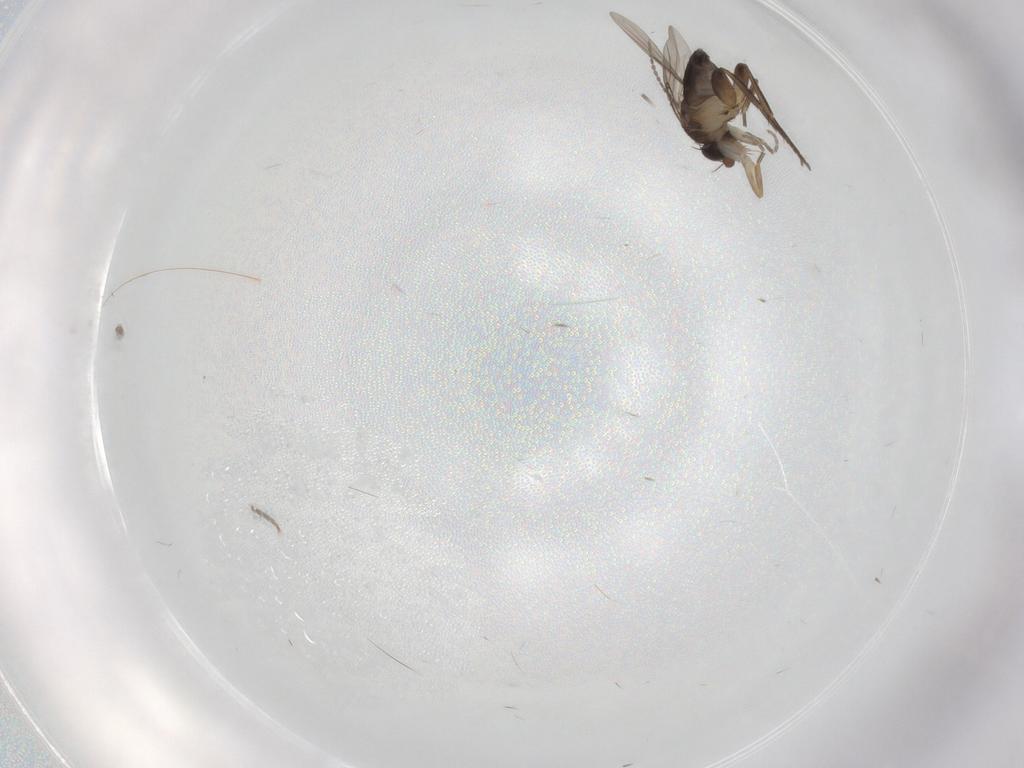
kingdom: Animalia
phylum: Arthropoda
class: Insecta
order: Diptera
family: Phoridae
